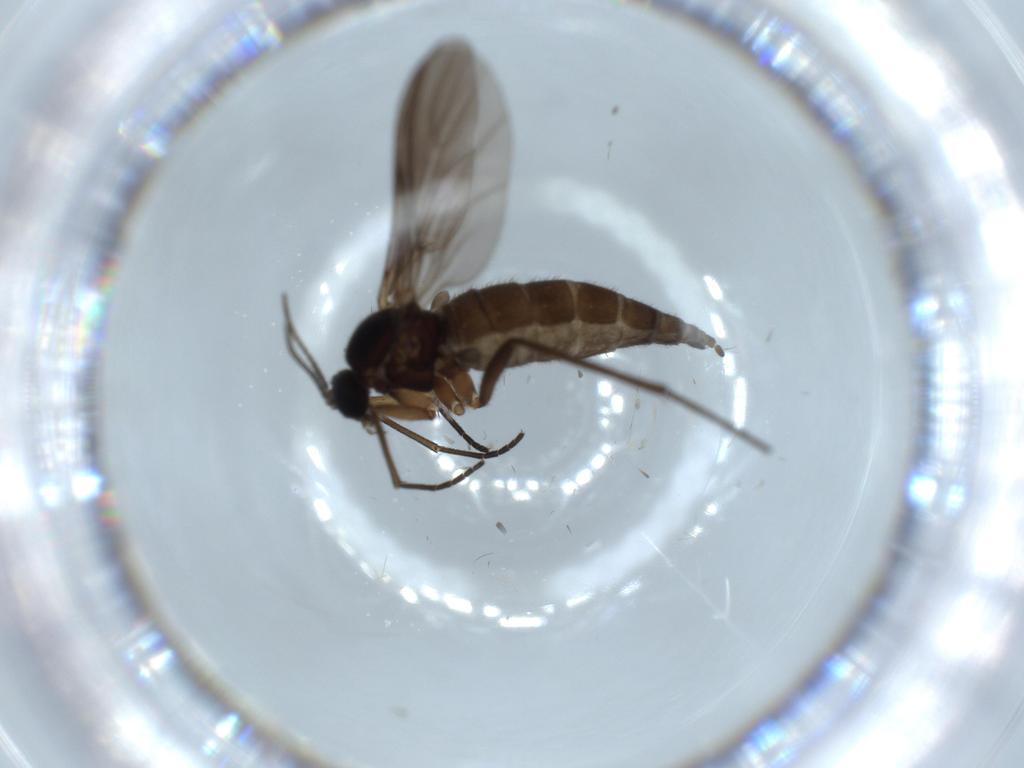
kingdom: Animalia
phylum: Arthropoda
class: Insecta
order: Diptera
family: Sciaridae
